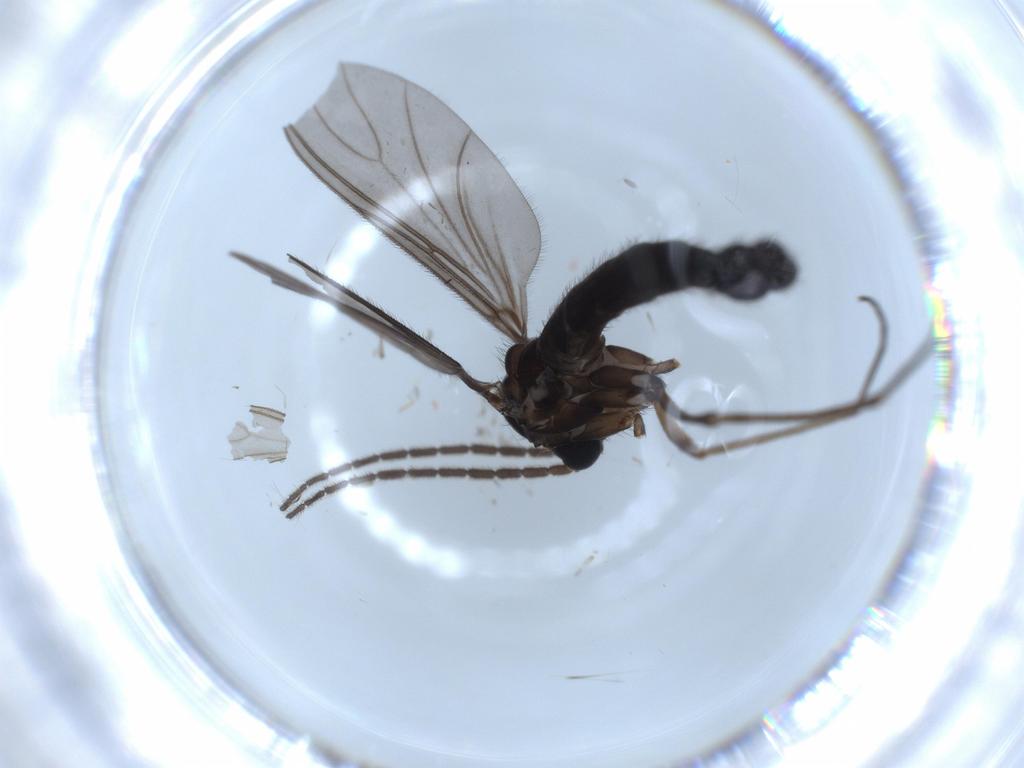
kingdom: Animalia
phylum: Arthropoda
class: Insecta
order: Diptera
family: Sciaridae
